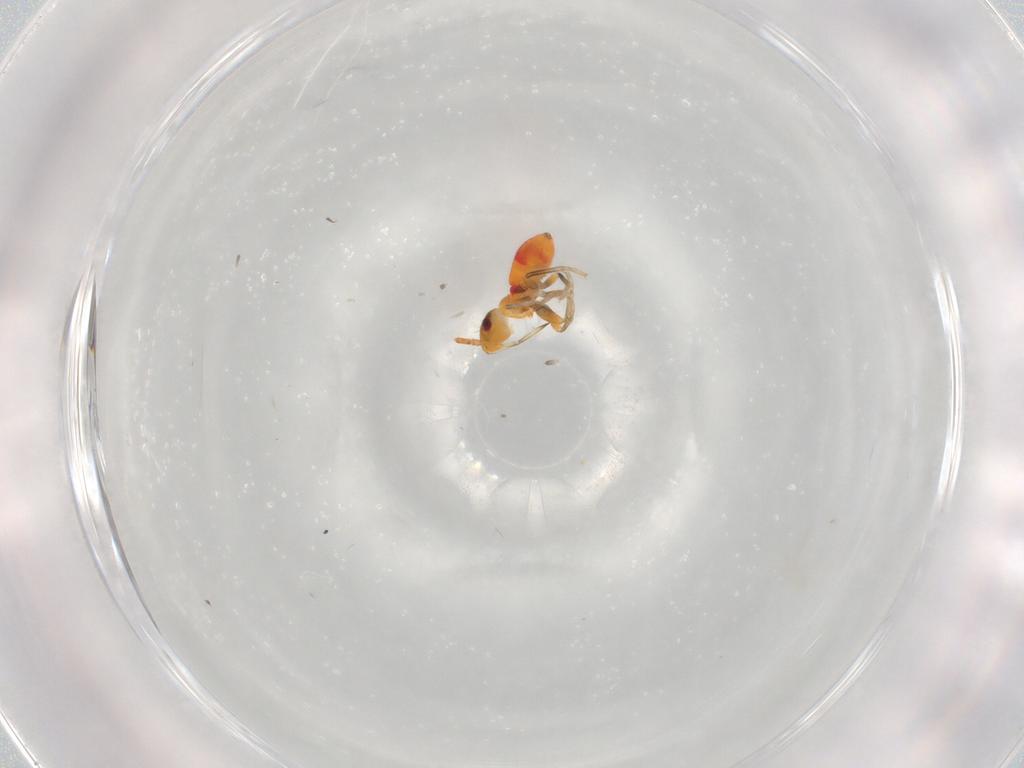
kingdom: Animalia
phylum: Arthropoda
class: Insecta
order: Hemiptera
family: Rhyparochromidae
